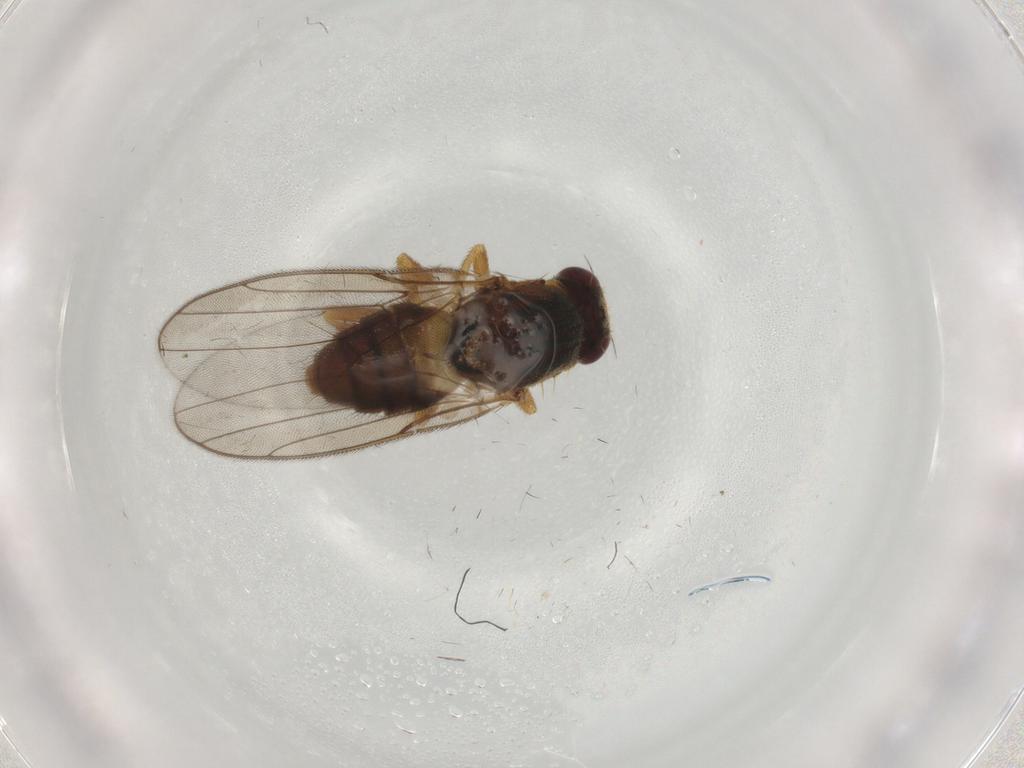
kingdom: Animalia
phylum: Arthropoda
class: Insecta
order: Diptera
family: Chloropidae
